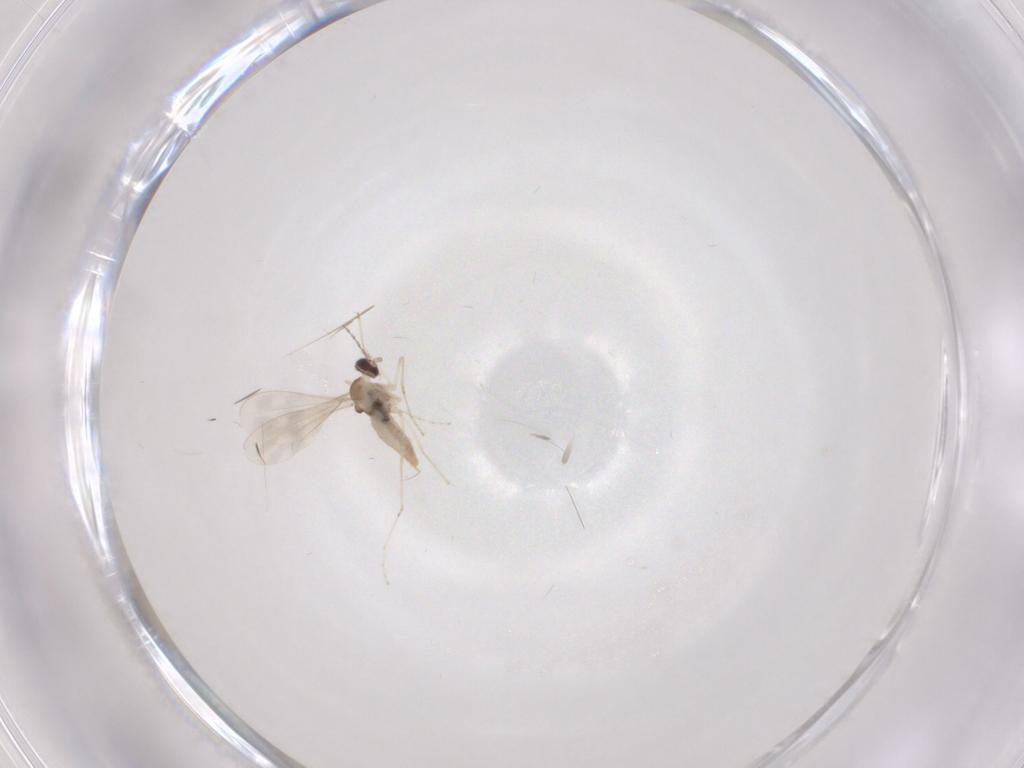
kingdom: Animalia
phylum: Arthropoda
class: Insecta
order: Diptera
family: Cecidomyiidae
